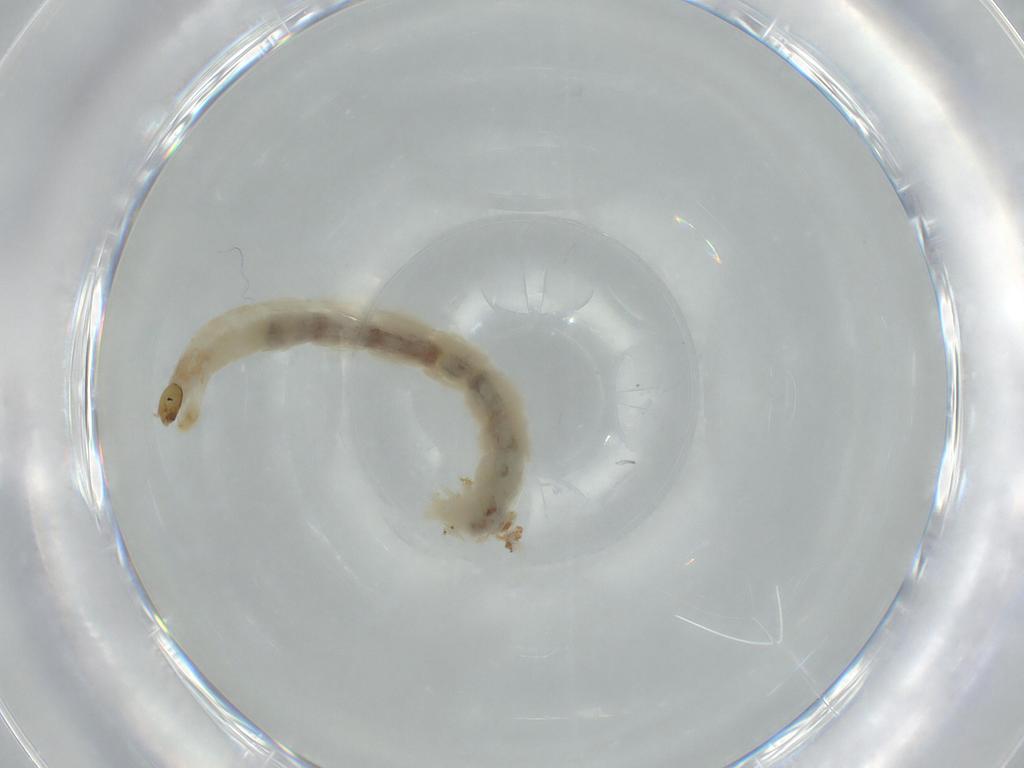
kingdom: Animalia
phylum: Arthropoda
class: Insecta
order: Diptera
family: Chironomidae
